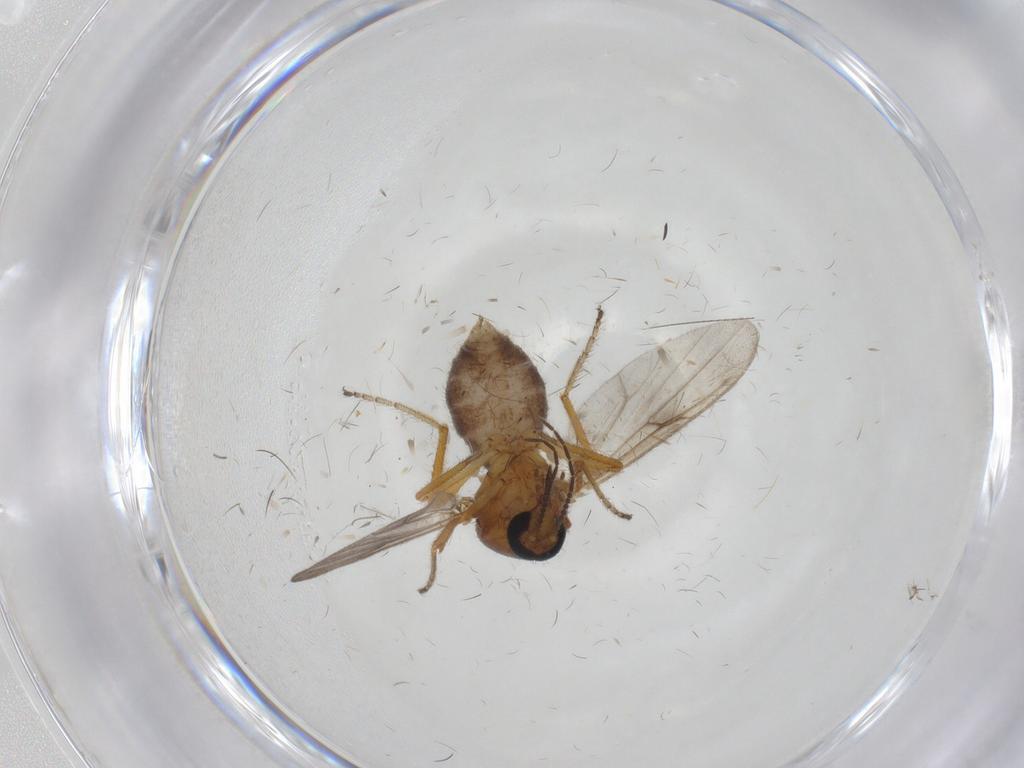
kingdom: Animalia
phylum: Arthropoda
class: Insecta
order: Diptera
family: Ceratopogonidae
